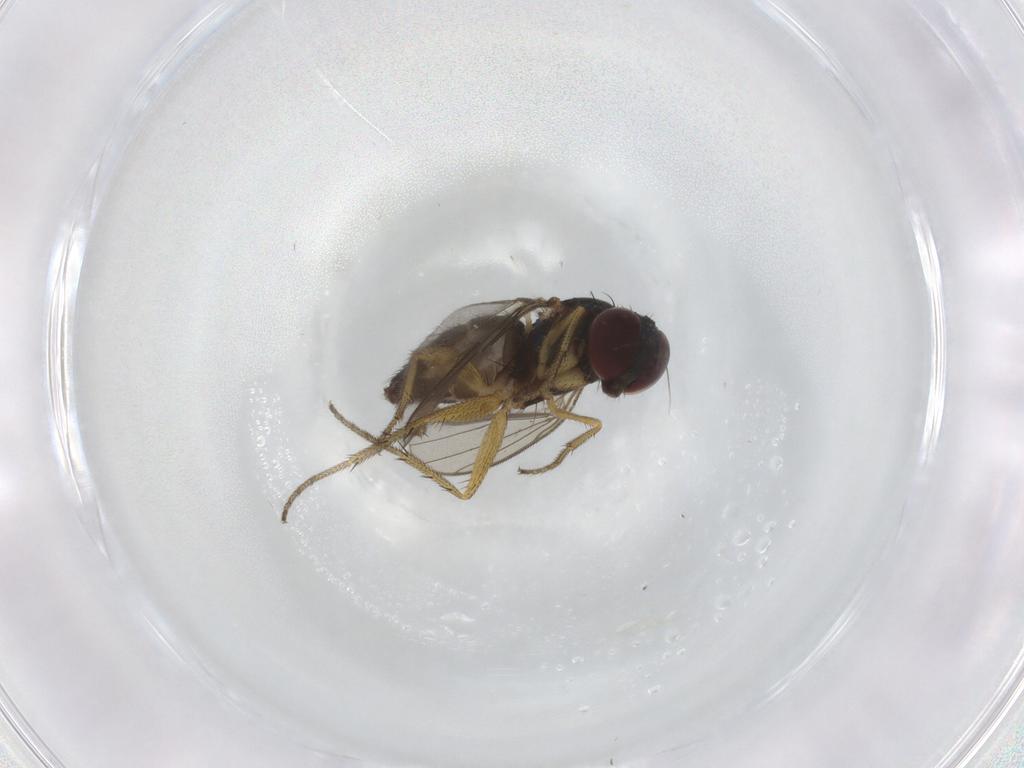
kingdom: Animalia
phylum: Arthropoda
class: Insecta
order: Diptera
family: Dolichopodidae
